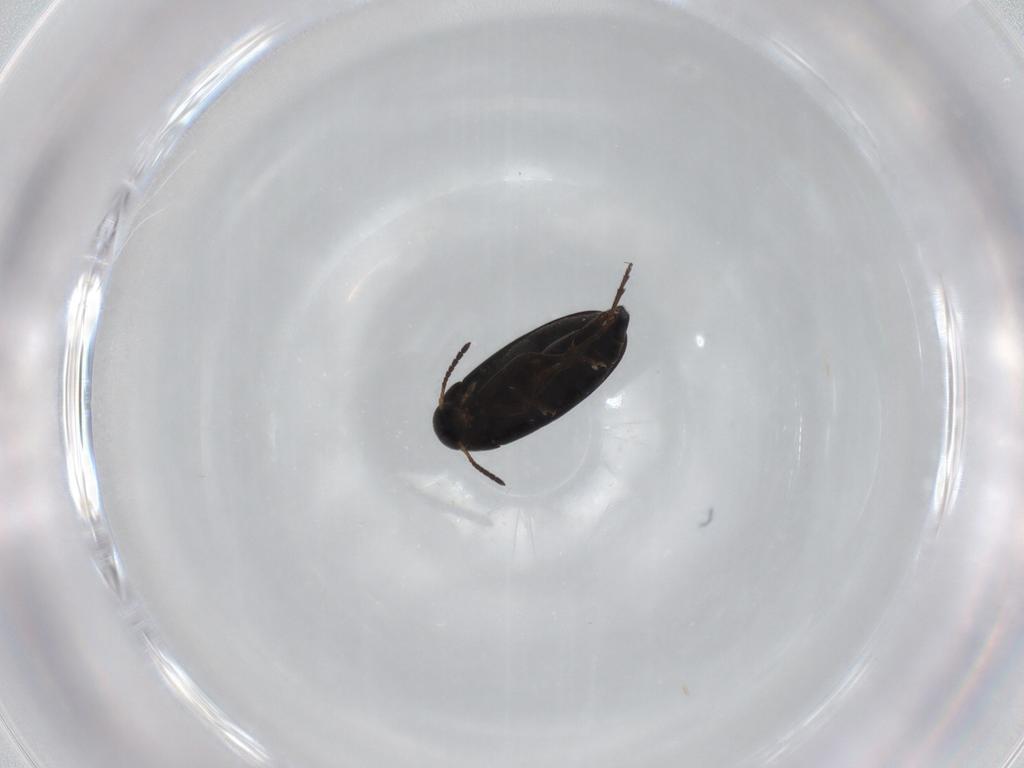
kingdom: Animalia
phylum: Arthropoda
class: Insecta
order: Coleoptera
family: Scraptiidae
